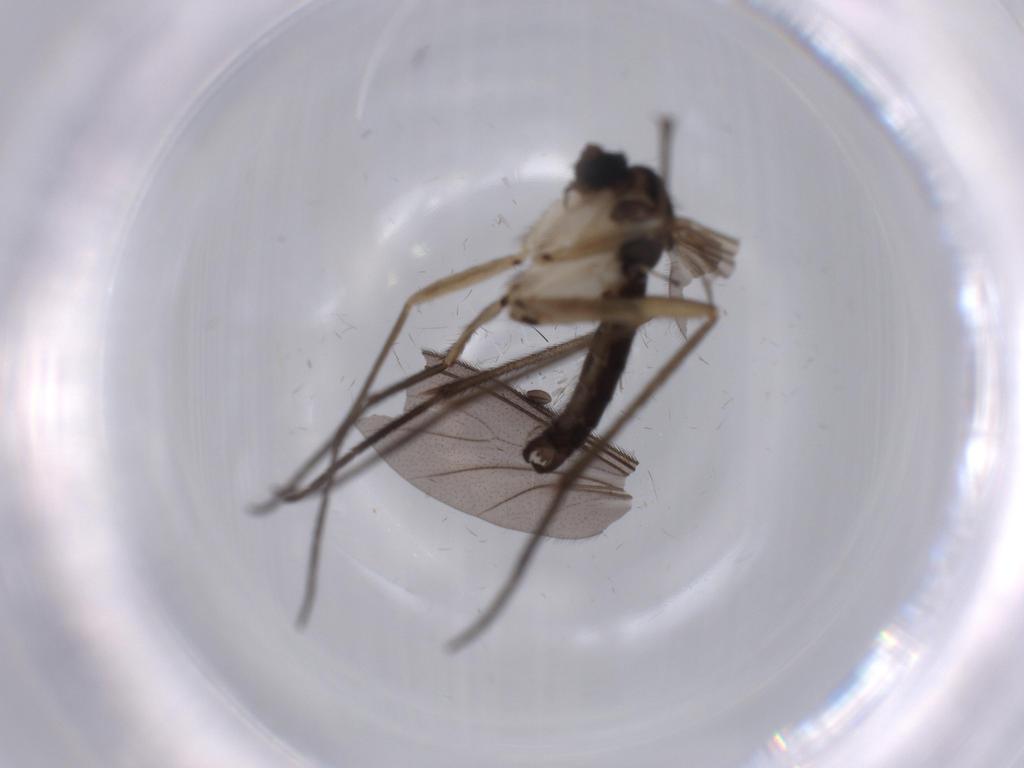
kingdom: Animalia
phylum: Arthropoda
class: Insecta
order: Diptera
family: Sciaridae
